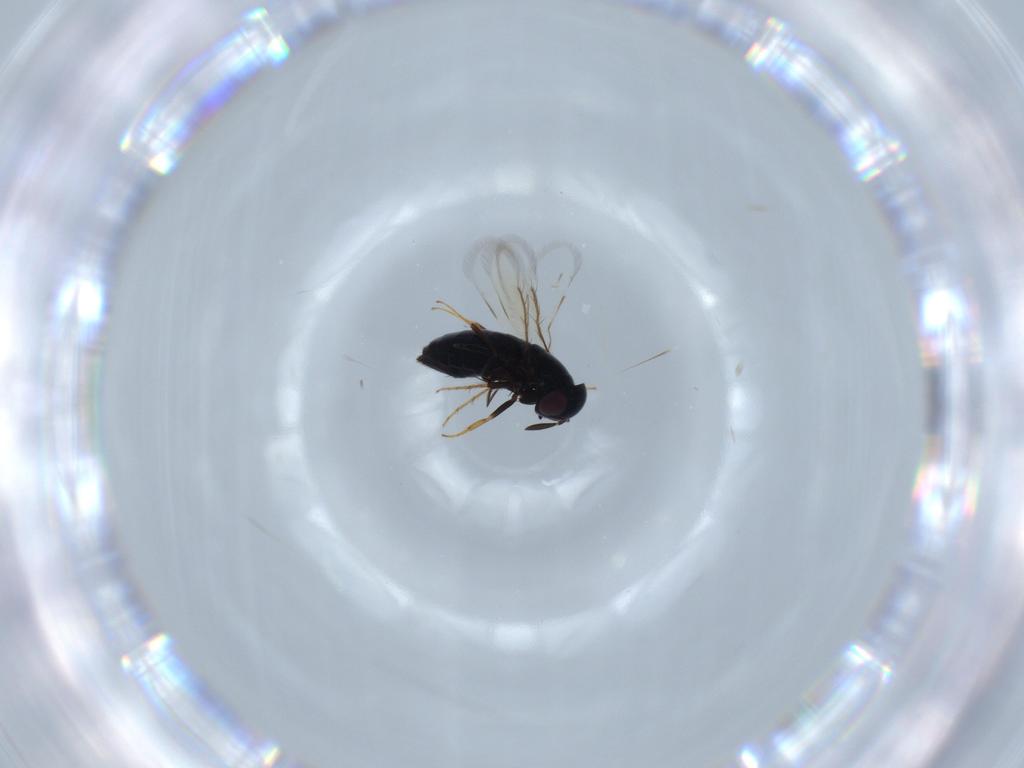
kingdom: Animalia
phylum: Arthropoda
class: Insecta
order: Hymenoptera
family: Signiphoridae
